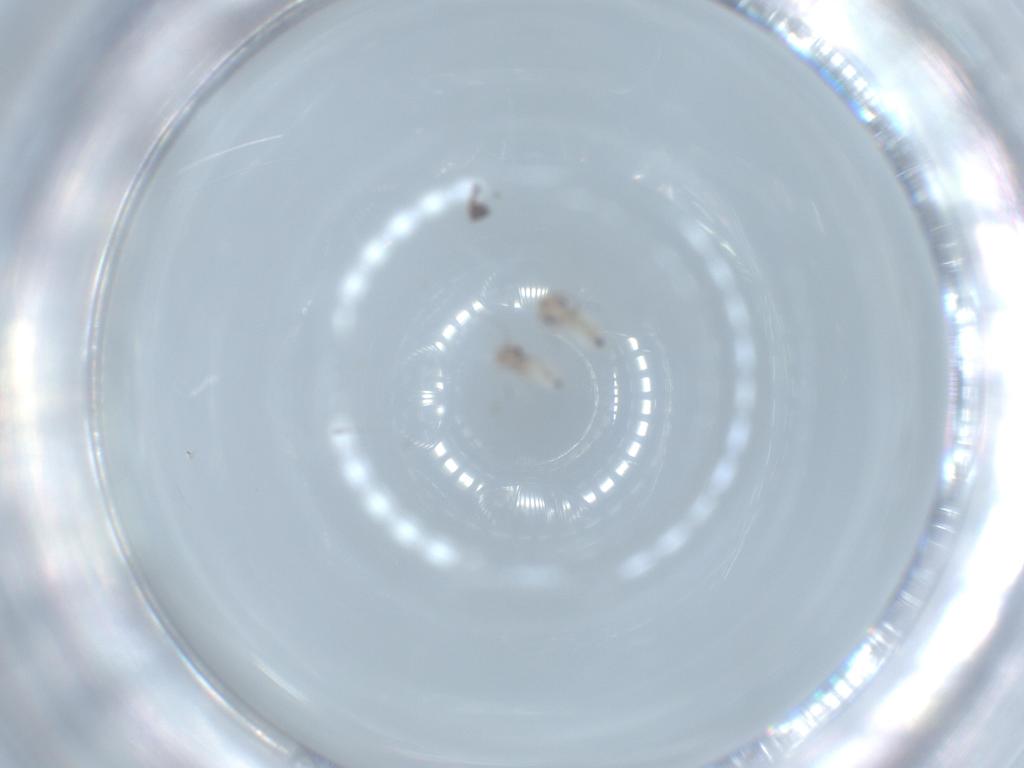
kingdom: Animalia
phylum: Arthropoda
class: Insecta
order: Psocodea
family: Lepidopsocidae
